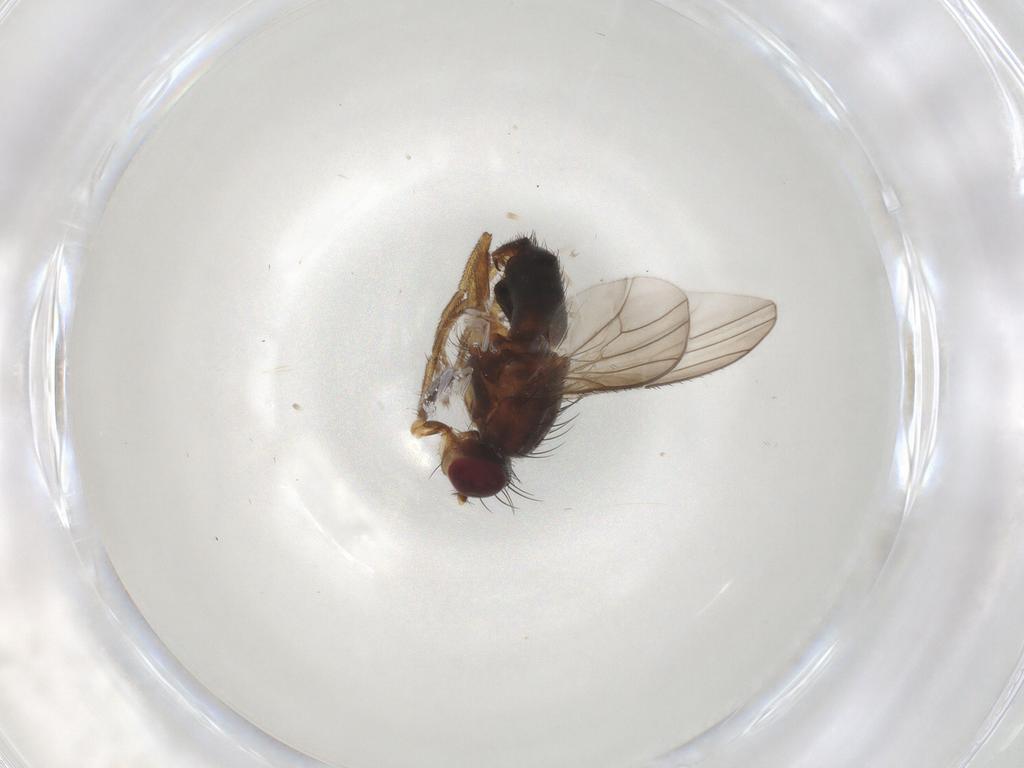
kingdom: Animalia
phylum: Arthropoda
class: Insecta
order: Diptera
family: Heleomyzidae
